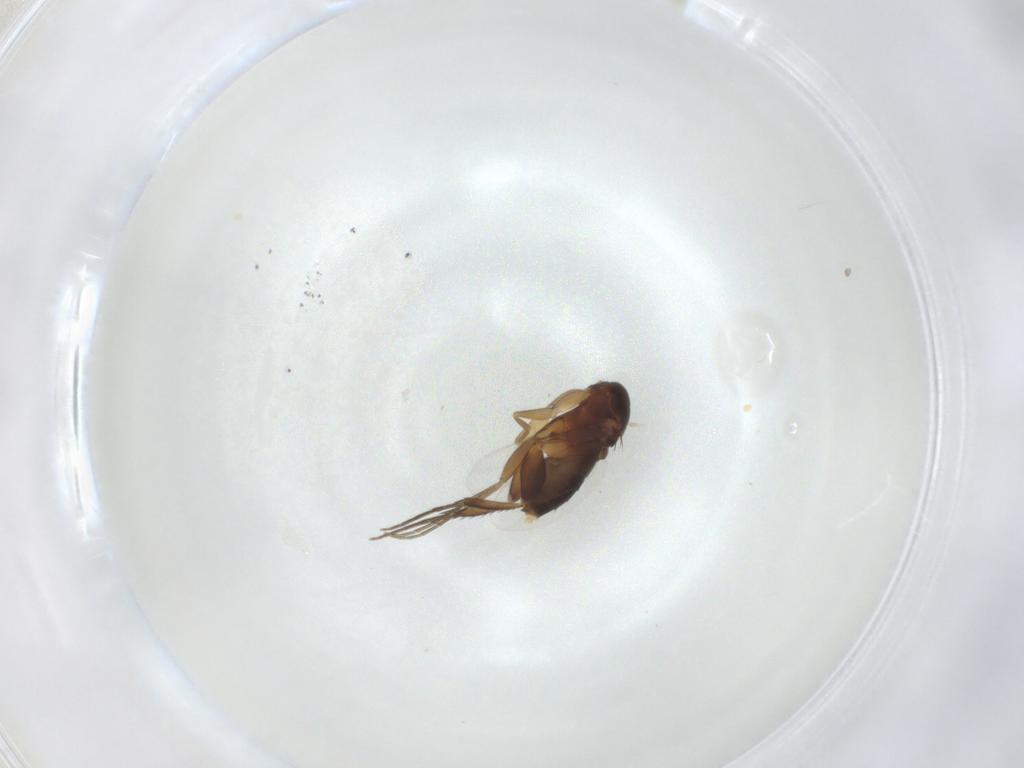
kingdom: Animalia
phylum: Arthropoda
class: Insecta
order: Diptera
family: Phoridae
